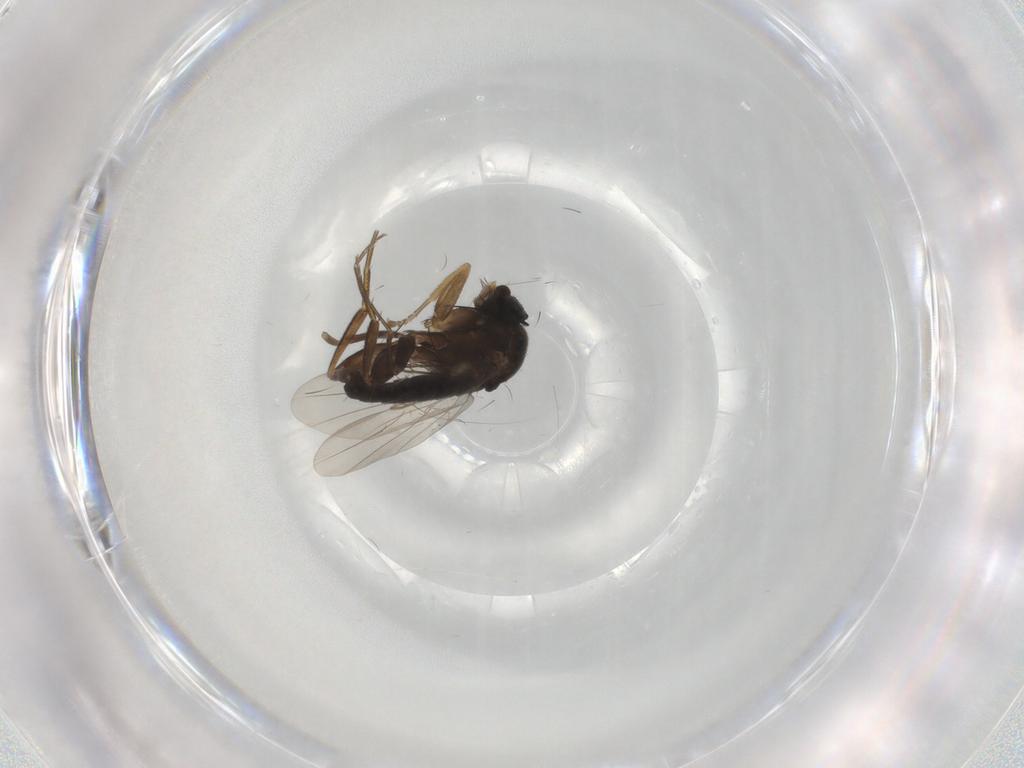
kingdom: Animalia
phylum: Arthropoda
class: Insecta
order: Diptera
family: Phoridae
